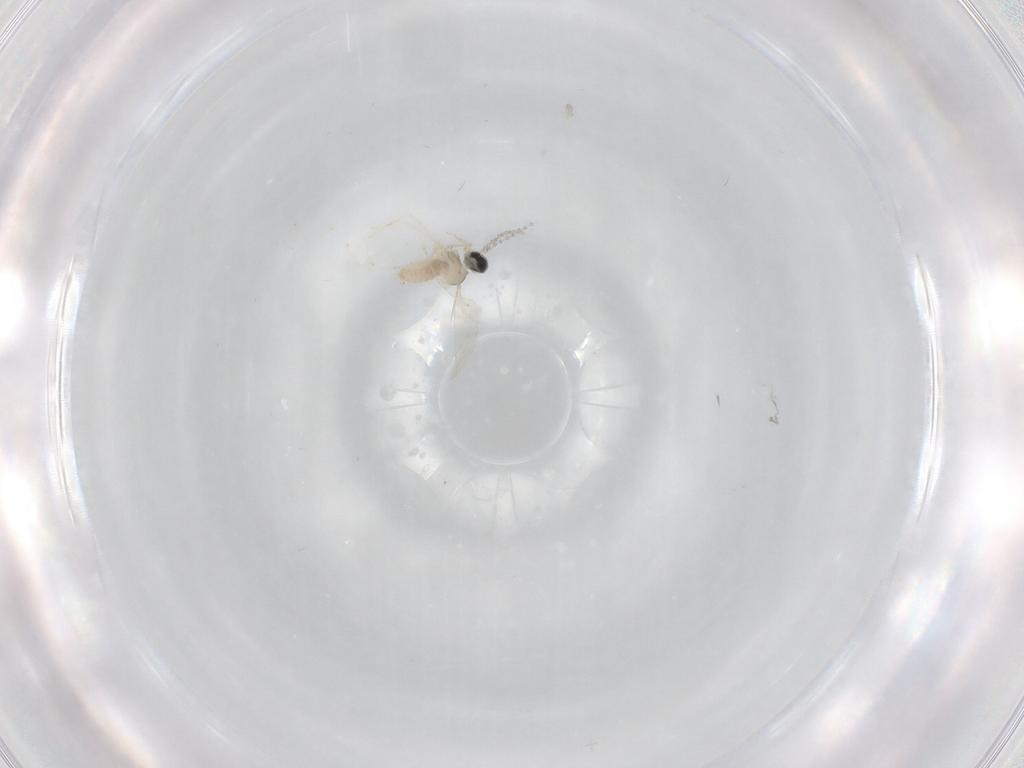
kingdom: Animalia
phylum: Arthropoda
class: Insecta
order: Diptera
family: Cecidomyiidae
